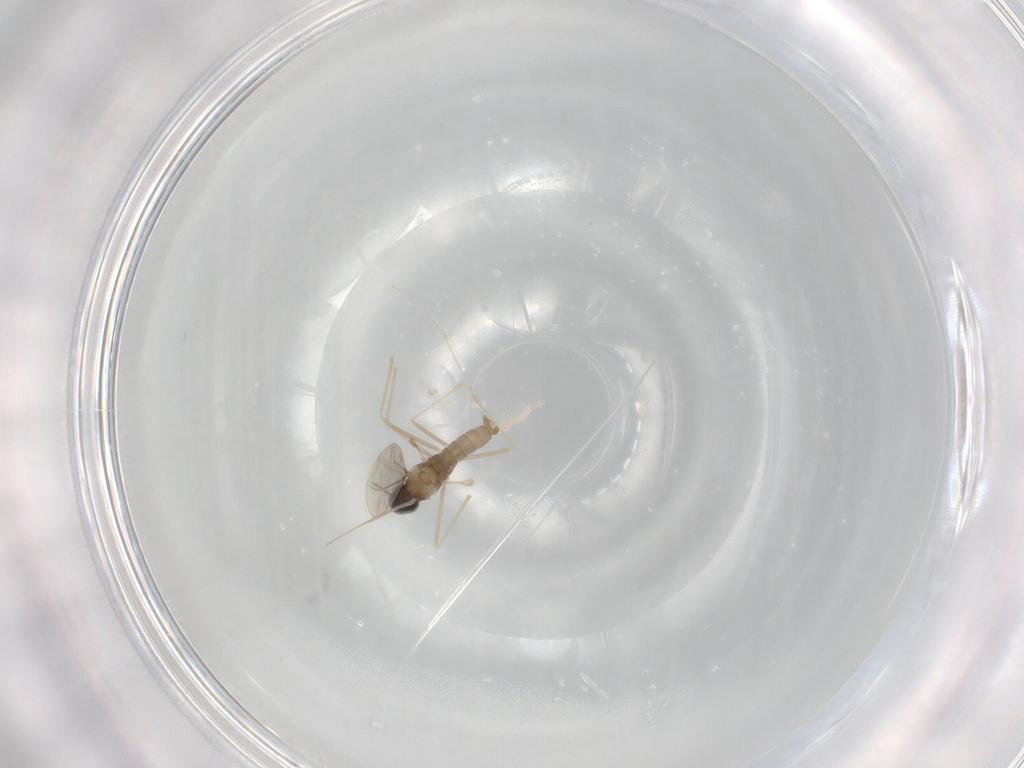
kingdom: Animalia
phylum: Arthropoda
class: Insecta
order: Diptera
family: Cecidomyiidae
